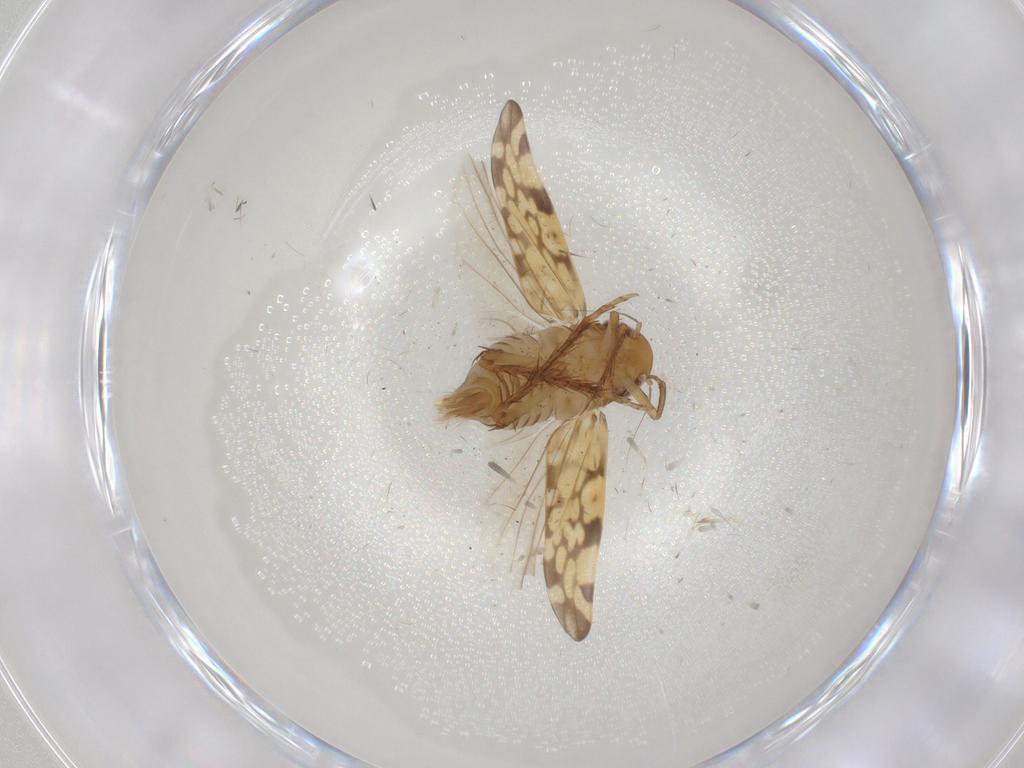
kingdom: Animalia
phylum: Arthropoda
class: Insecta
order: Hemiptera
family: Cicadellidae
